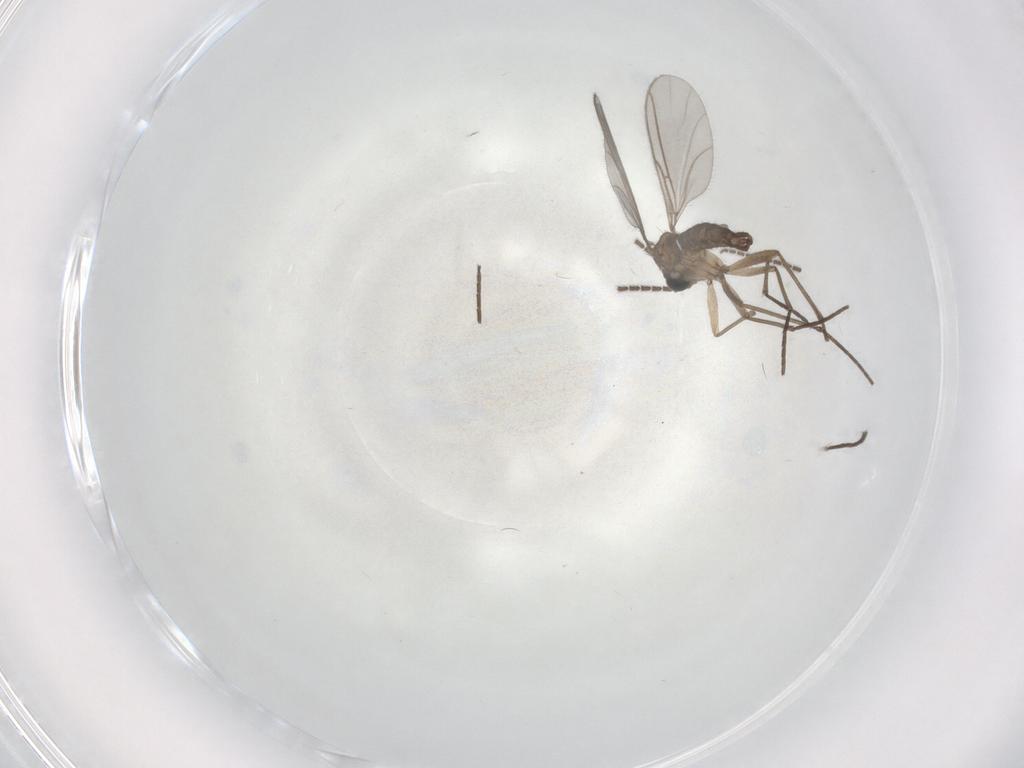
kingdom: Animalia
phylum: Arthropoda
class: Insecta
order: Diptera
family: Sciaridae
